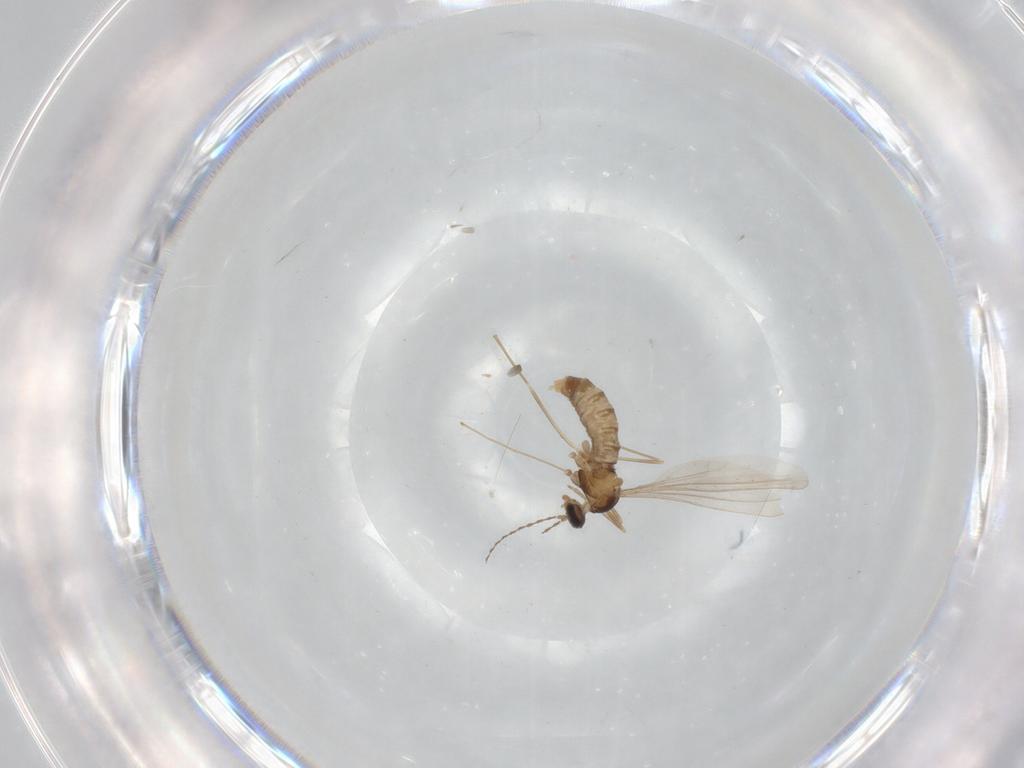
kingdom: Animalia
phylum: Arthropoda
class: Insecta
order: Diptera
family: Cecidomyiidae
